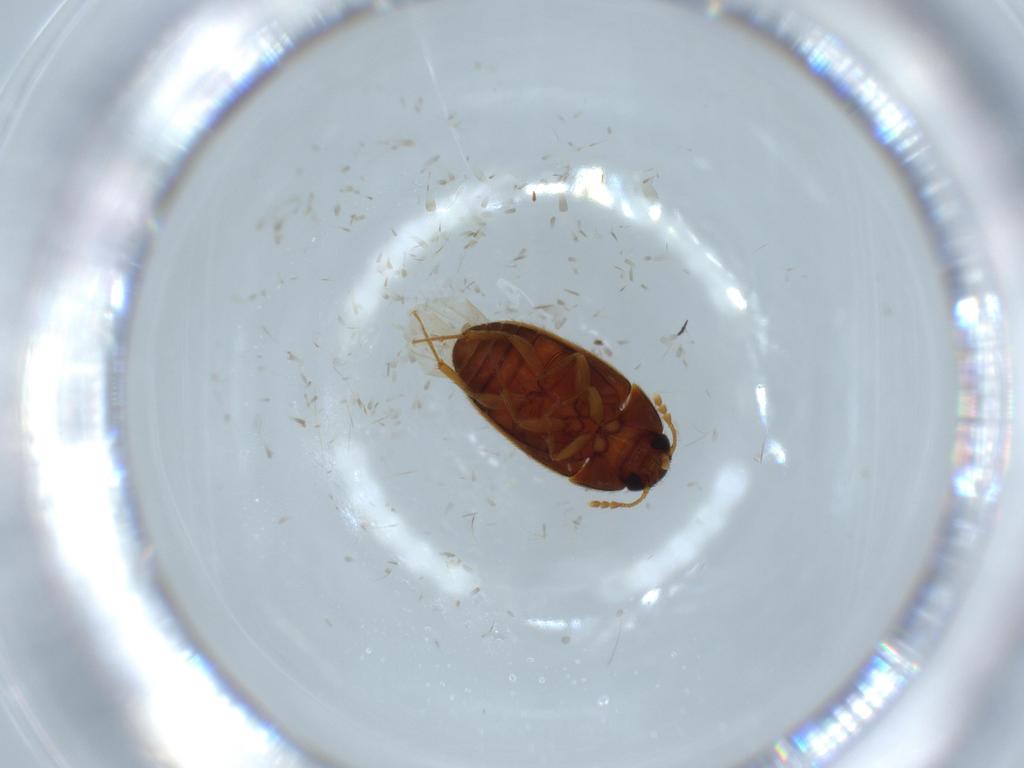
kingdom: Animalia
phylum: Arthropoda
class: Insecta
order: Coleoptera
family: Mycetophagidae
